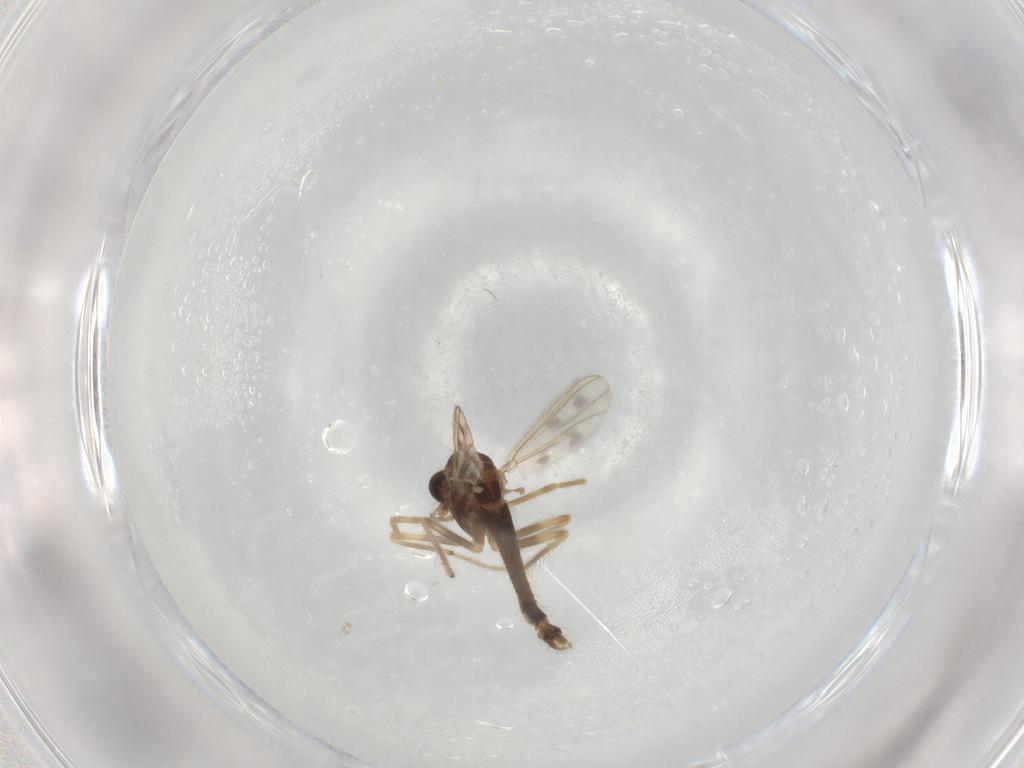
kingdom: Animalia
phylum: Arthropoda
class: Insecta
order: Diptera
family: Chironomidae
